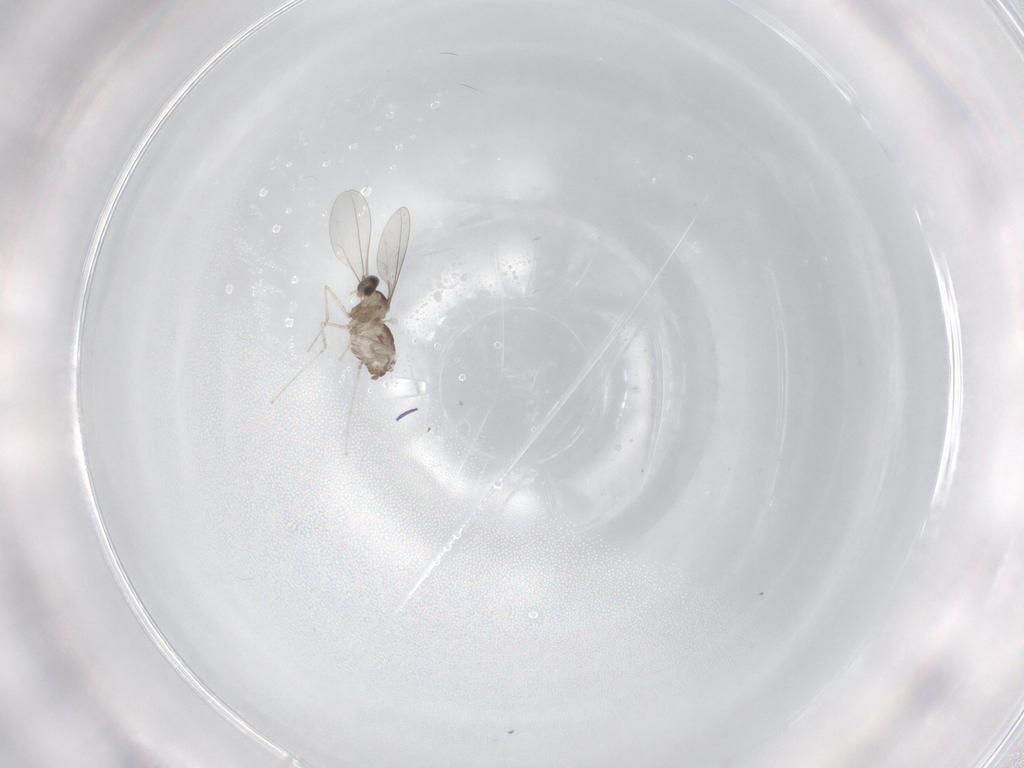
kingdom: Animalia
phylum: Arthropoda
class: Insecta
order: Diptera
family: Cecidomyiidae
